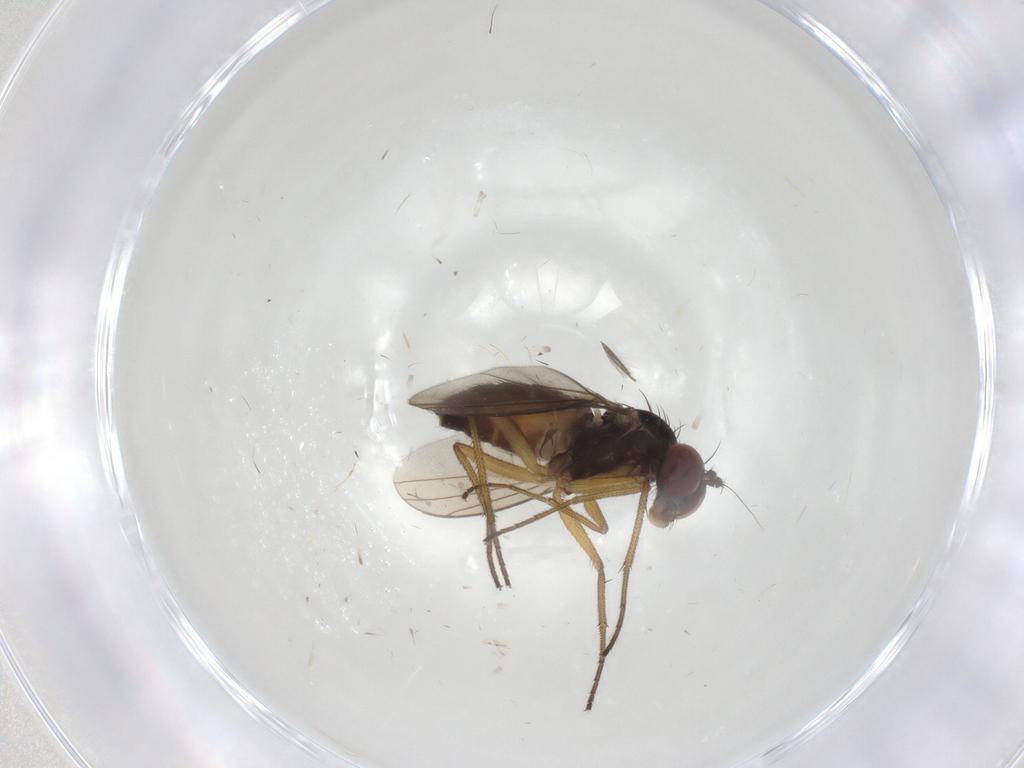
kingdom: Animalia
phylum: Arthropoda
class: Insecta
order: Diptera
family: Dolichopodidae
